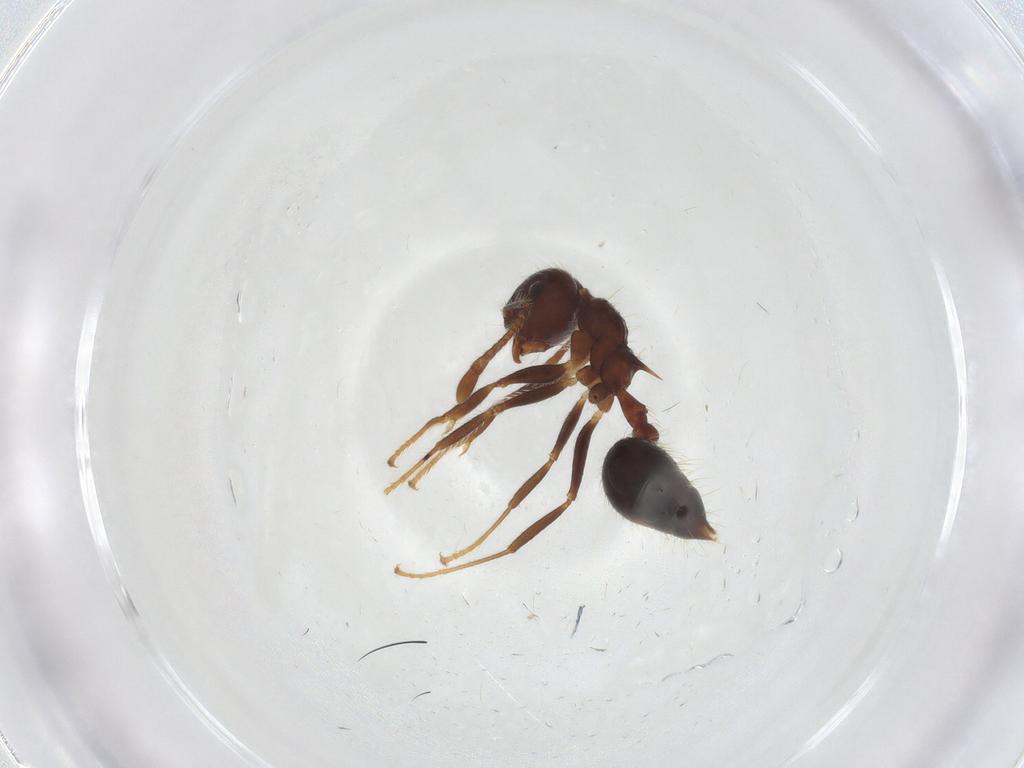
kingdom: Animalia
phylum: Arthropoda
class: Insecta
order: Hymenoptera
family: Formicidae
